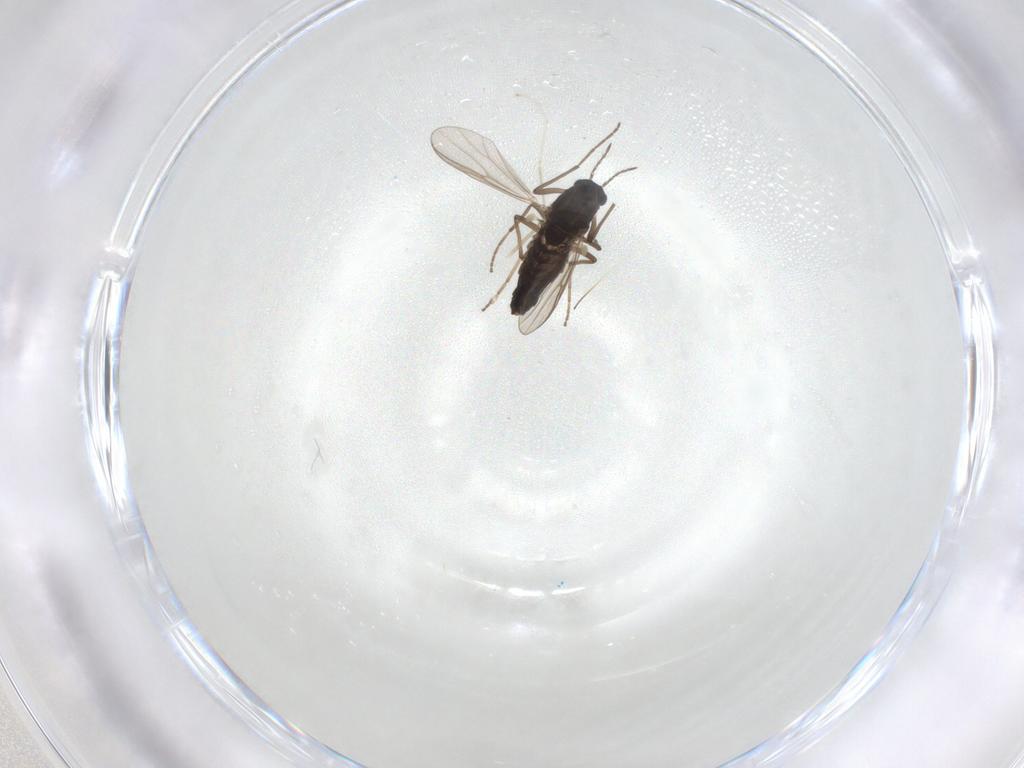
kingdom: Animalia
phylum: Arthropoda
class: Insecta
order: Diptera
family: Chironomidae
